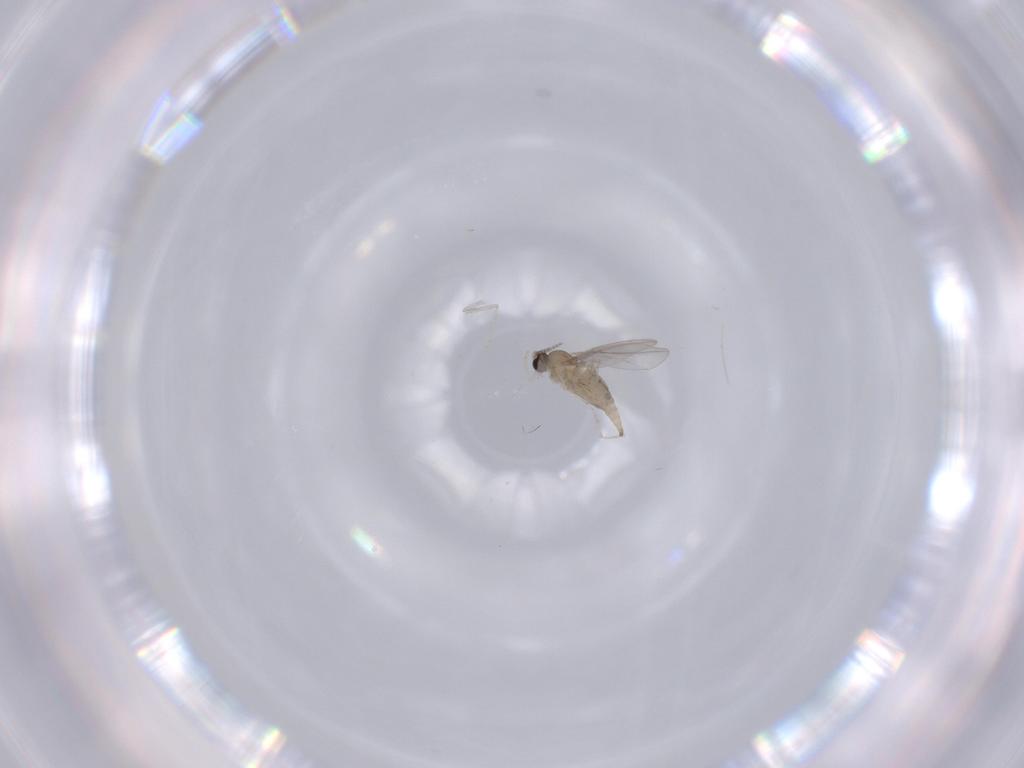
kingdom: Animalia
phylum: Arthropoda
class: Insecta
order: Diptera
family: Cecidomyiidae
